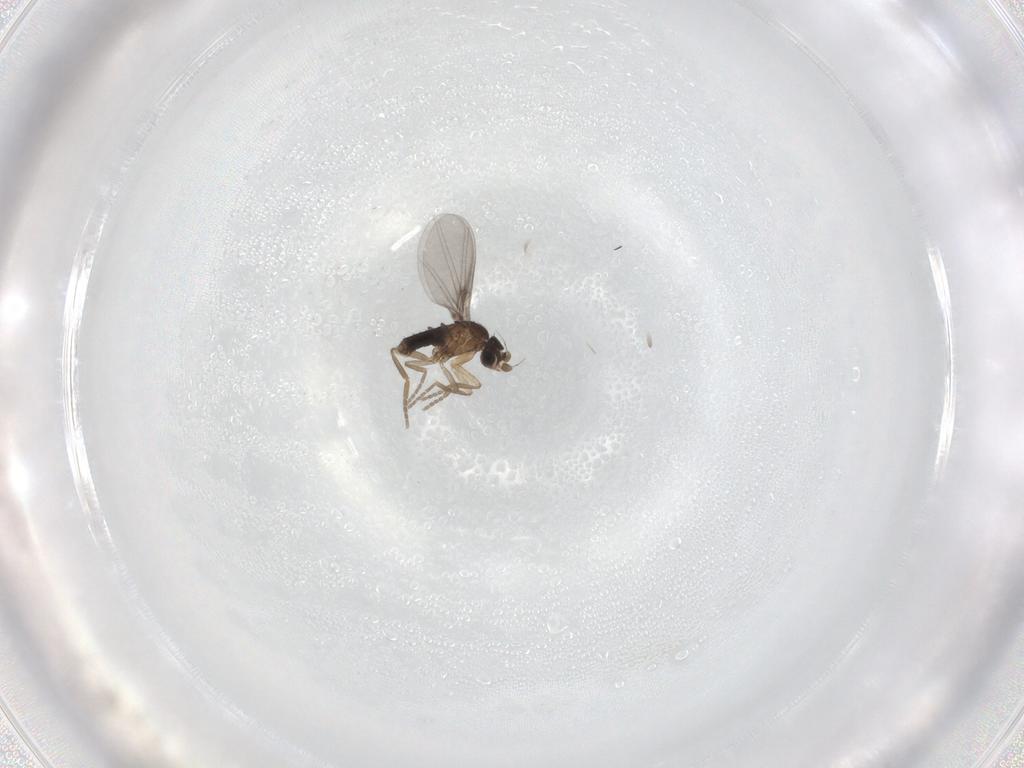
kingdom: Animalia
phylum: Arthropoda
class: Insecta
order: Diptera
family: Phoridae
